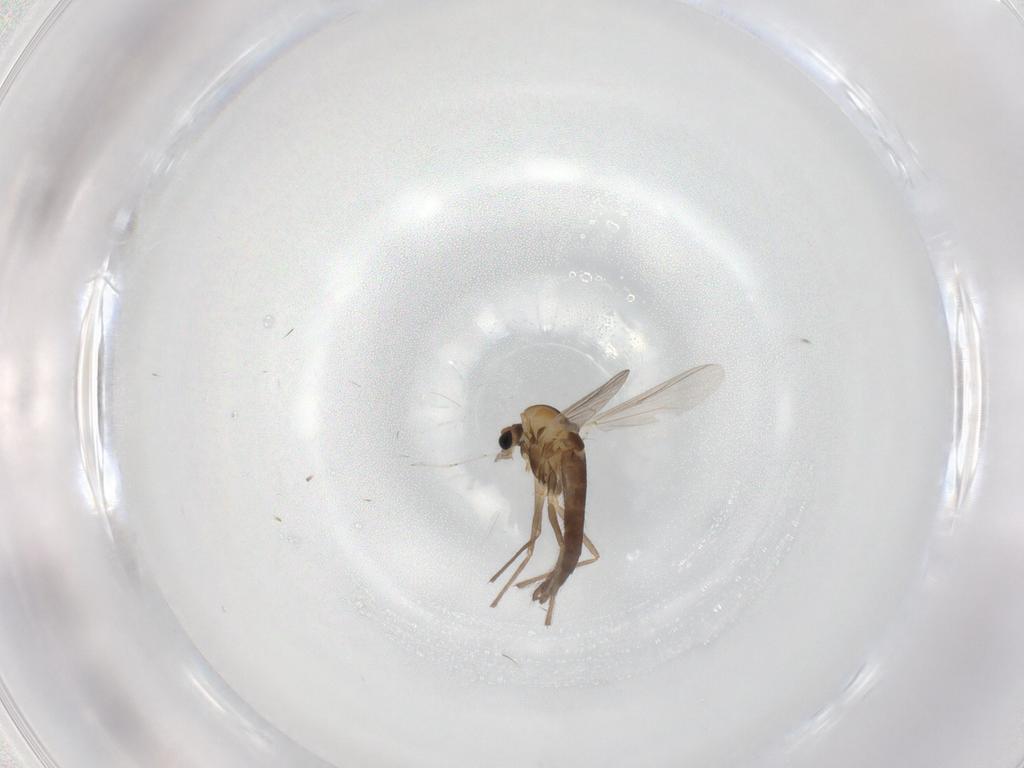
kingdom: Animalia
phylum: Arthropoda
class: Insecta
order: Diptera
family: Chironomidae
